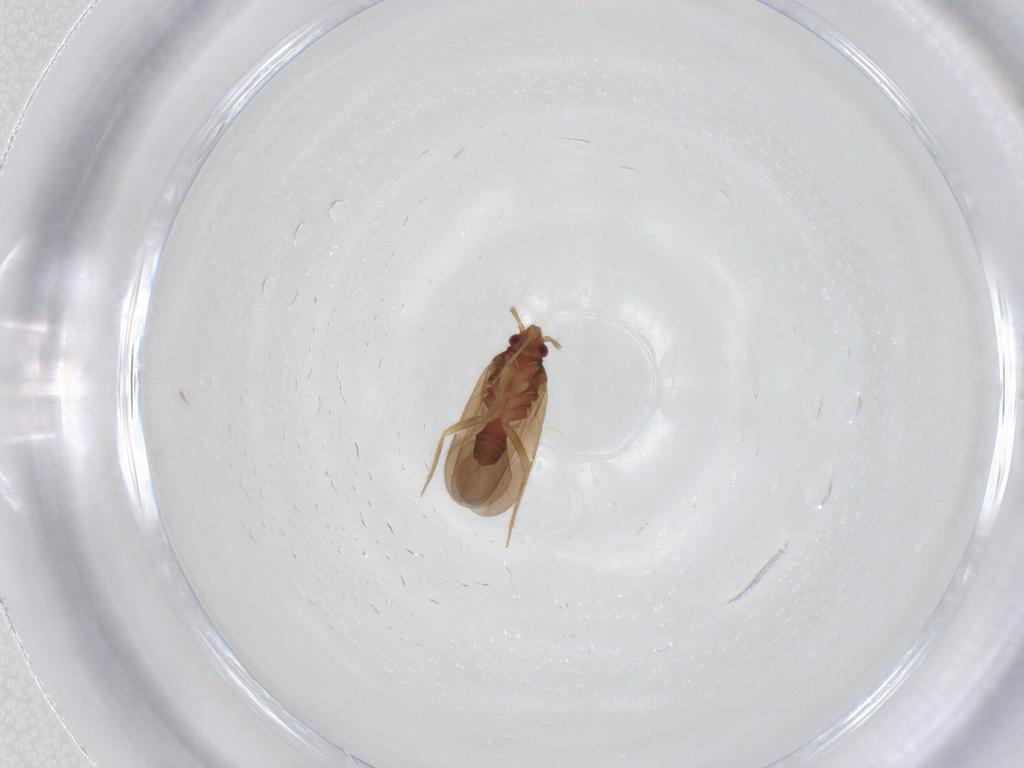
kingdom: Animalia
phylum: Arthropoda
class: Insecta
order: Hemiptera
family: Ceratocombidae
